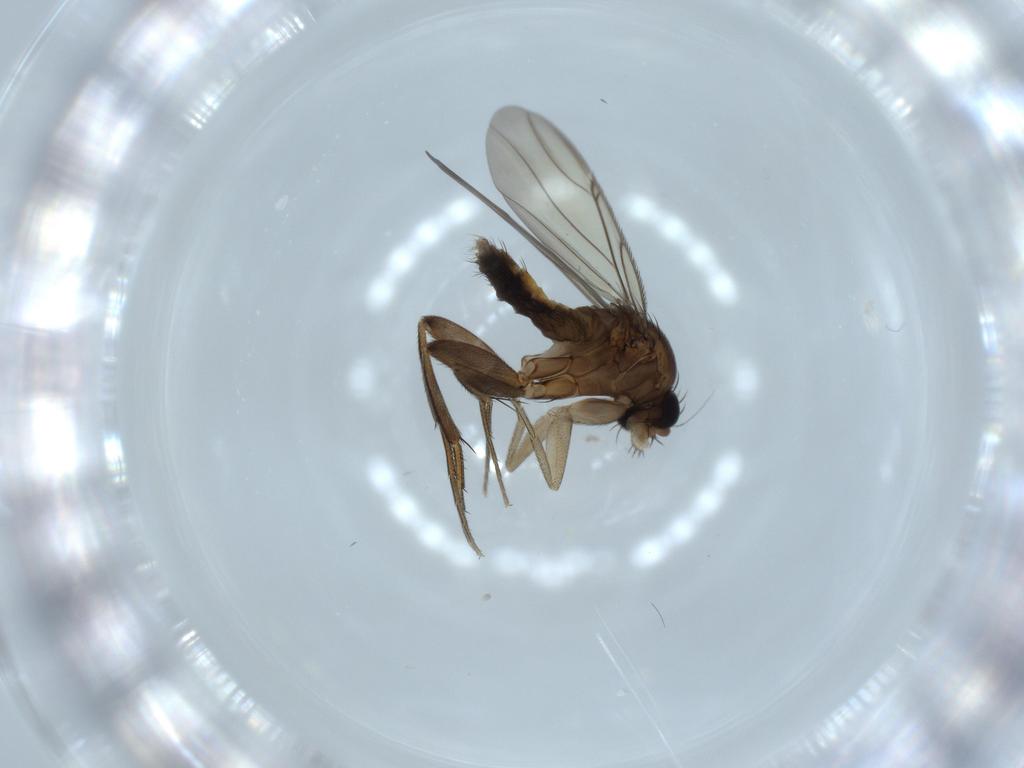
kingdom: Animalia
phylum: Arthropoda
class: Insecta
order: Diptera
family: Phoridae
